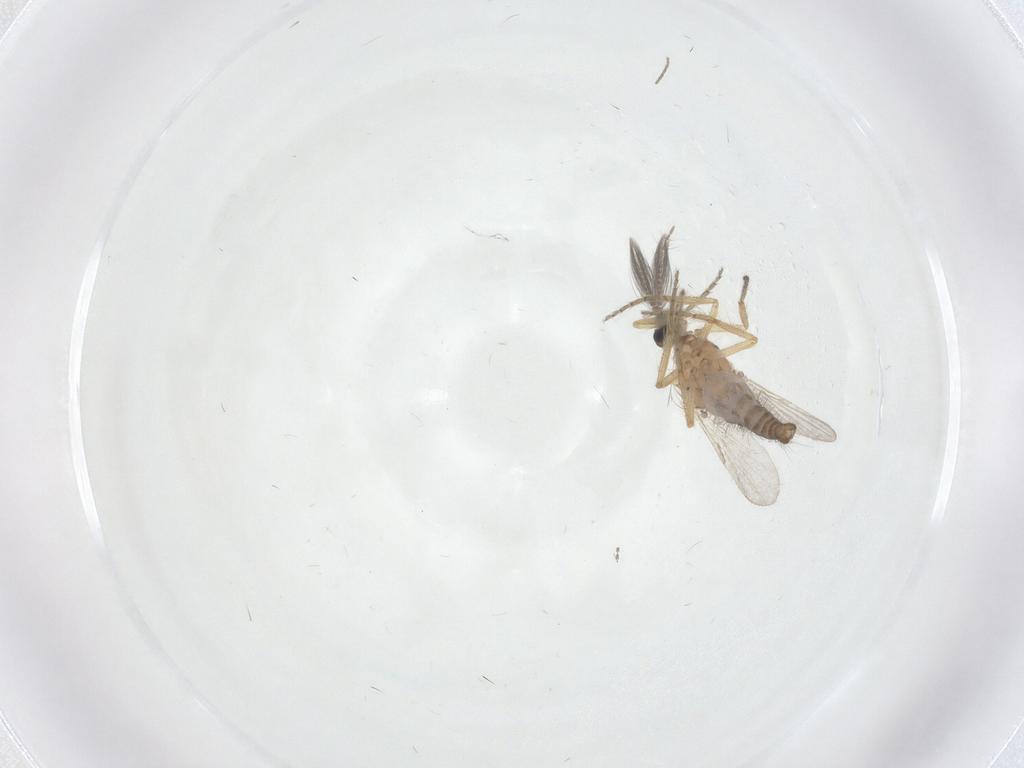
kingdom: Animalia
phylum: Arthropoda
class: Insecta
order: Diptera
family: Ceratopogonidae
